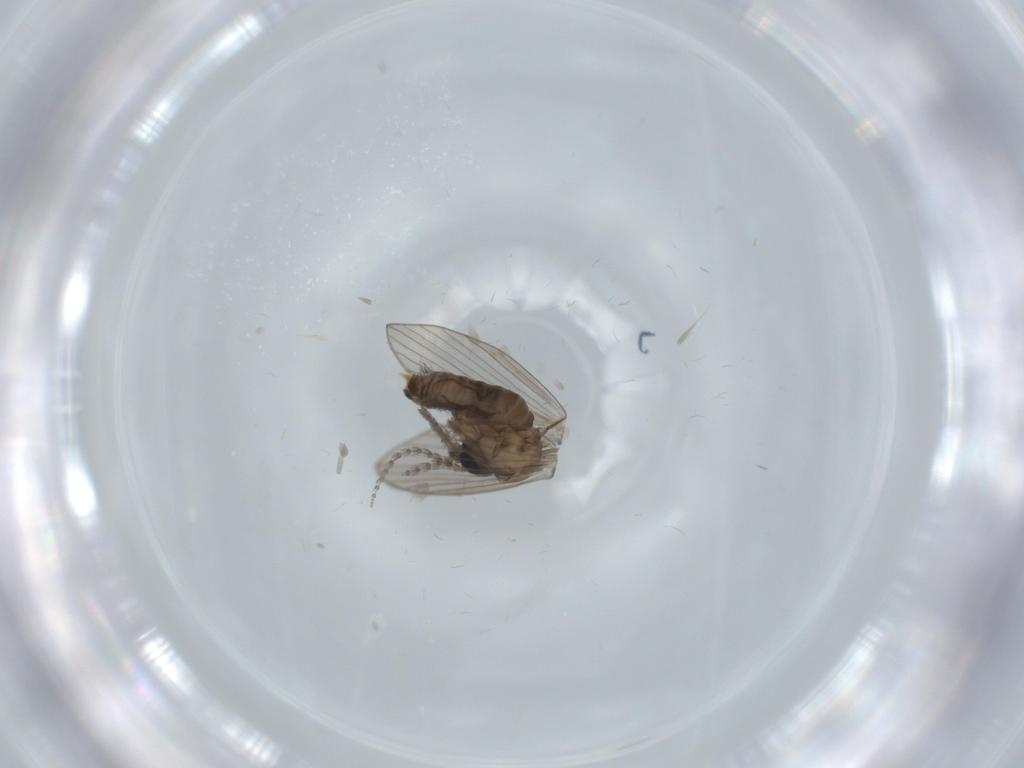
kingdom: Animalia
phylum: Arthropoda
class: Insecta
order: Diptera
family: Psychodidae
